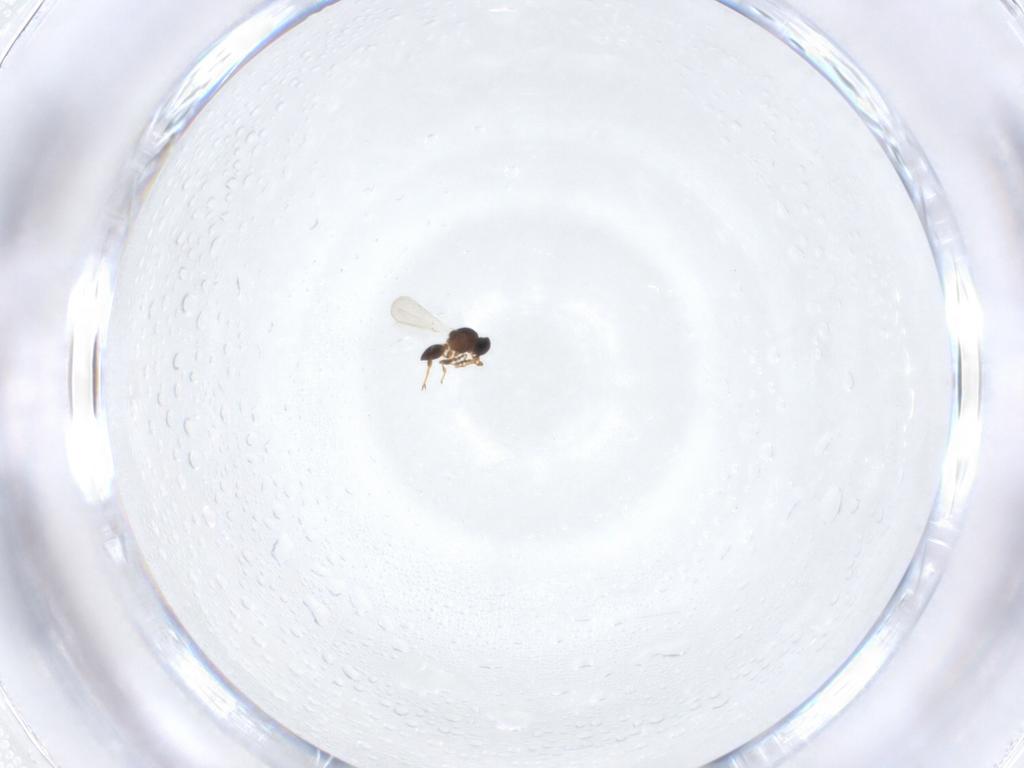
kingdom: Animalia
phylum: Arthropoda
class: Insecta
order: Hymenoptera
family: Platygastridae
